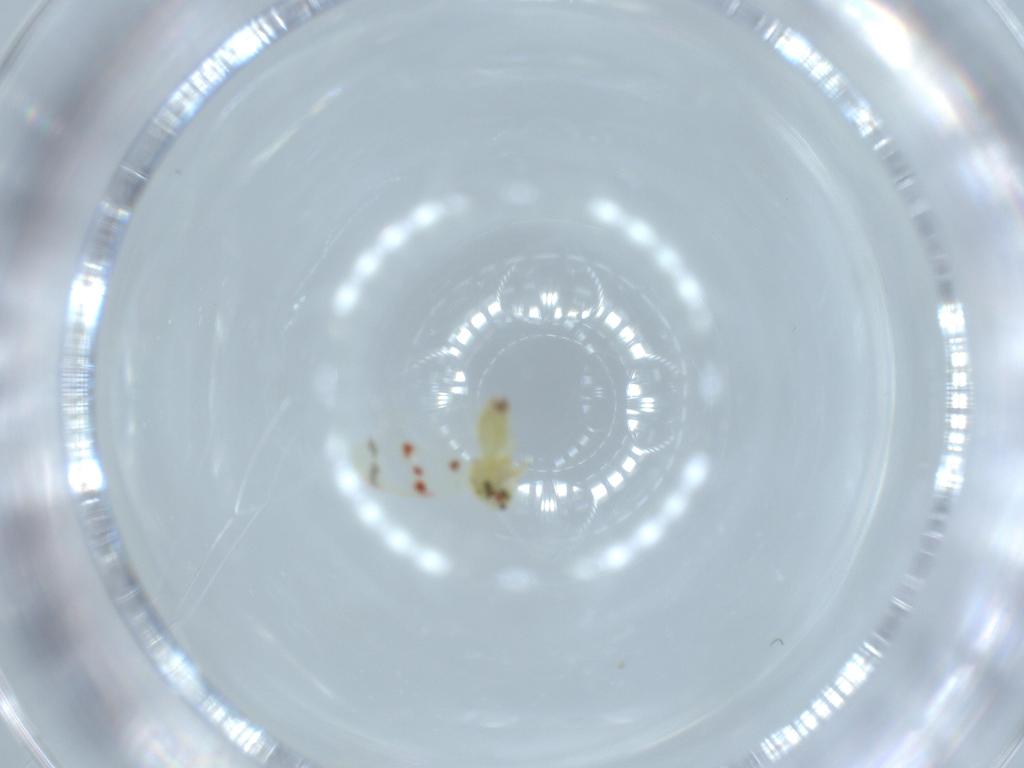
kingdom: Animalia
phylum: Arthropoda
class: Insecta
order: Hemiptera
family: Aleyrodidae
